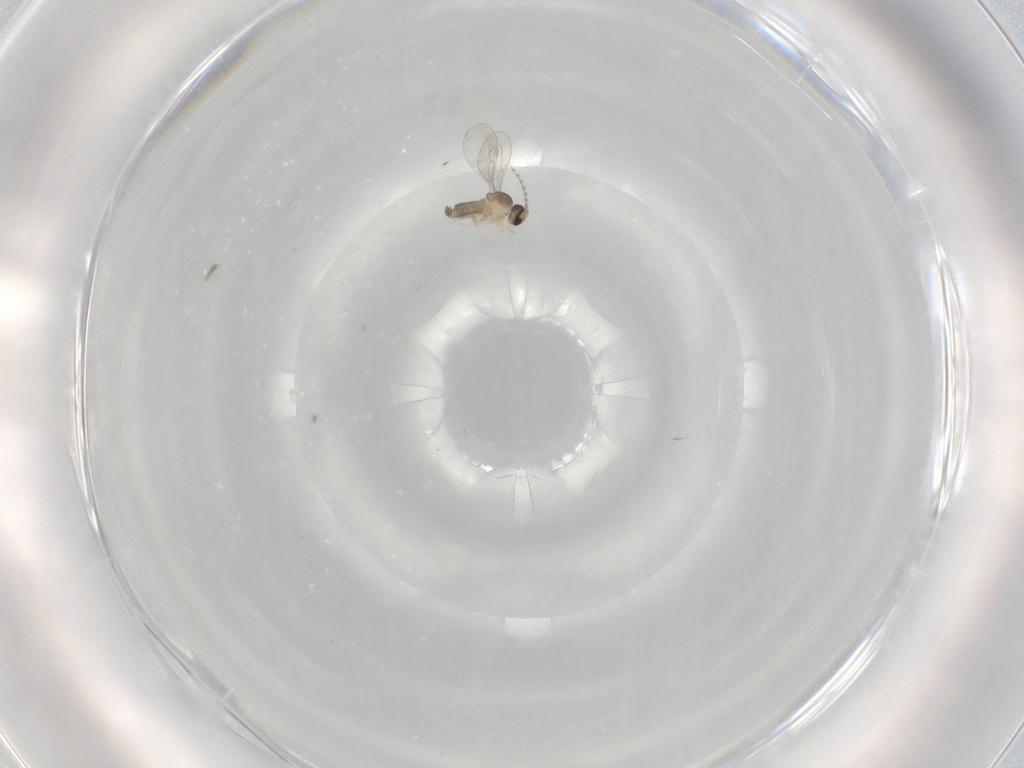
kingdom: Animalia
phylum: Arthropoda
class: Insecta
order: Diptera
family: Cecidomyiidae
